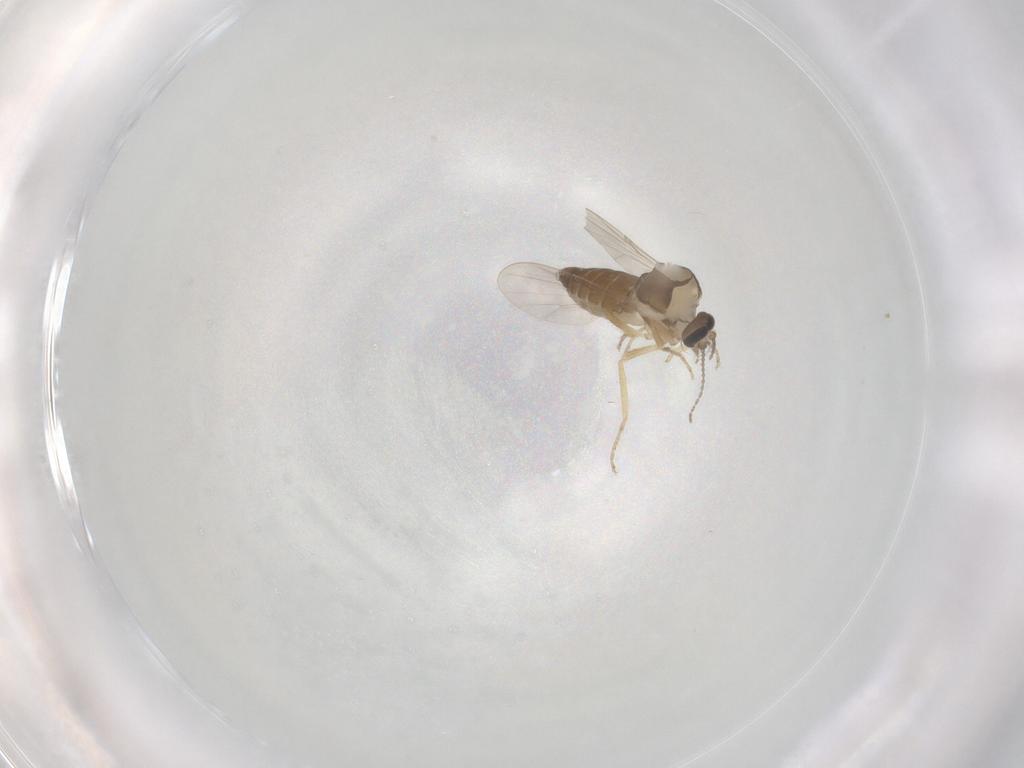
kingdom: Animalia
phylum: Arthropoda
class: Insecta
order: Diptera
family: Ceratopogonidae
